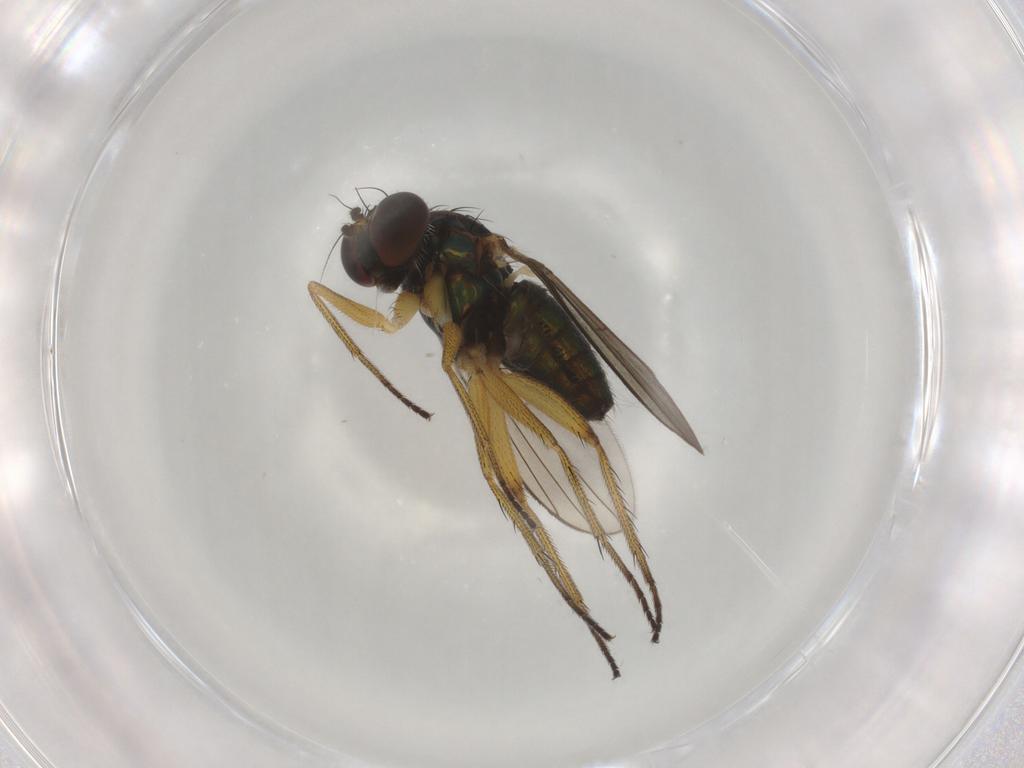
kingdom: Animalia
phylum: Arthropoda
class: Insecta
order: Diptera
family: Dolichopodidae
